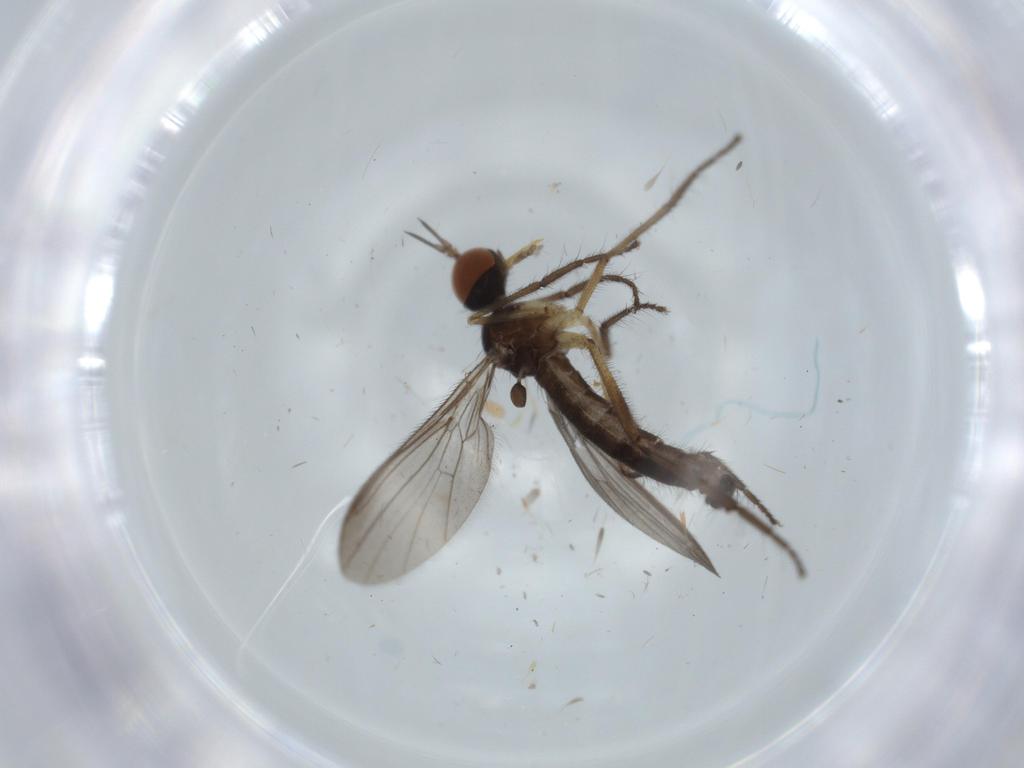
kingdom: Animalia
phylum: Arthropoda
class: Insecta
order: Diptera
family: Empididae
